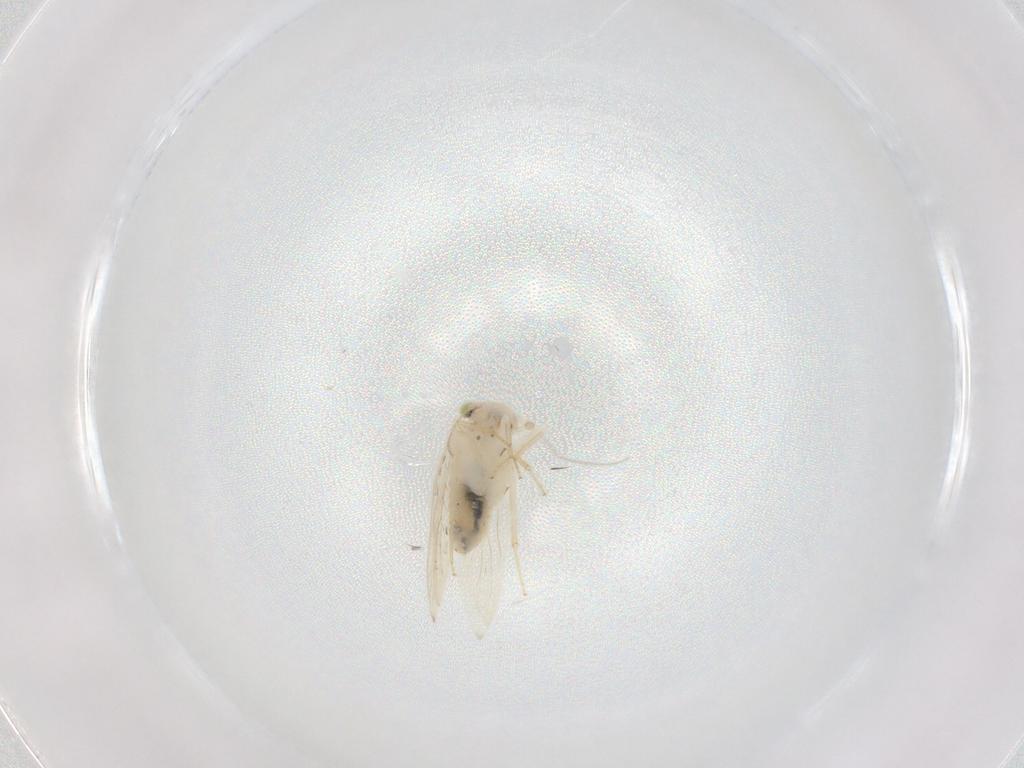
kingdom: Animalia
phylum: Arthropoda
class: Insecta
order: Psocodea
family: Lepidopsocidae
